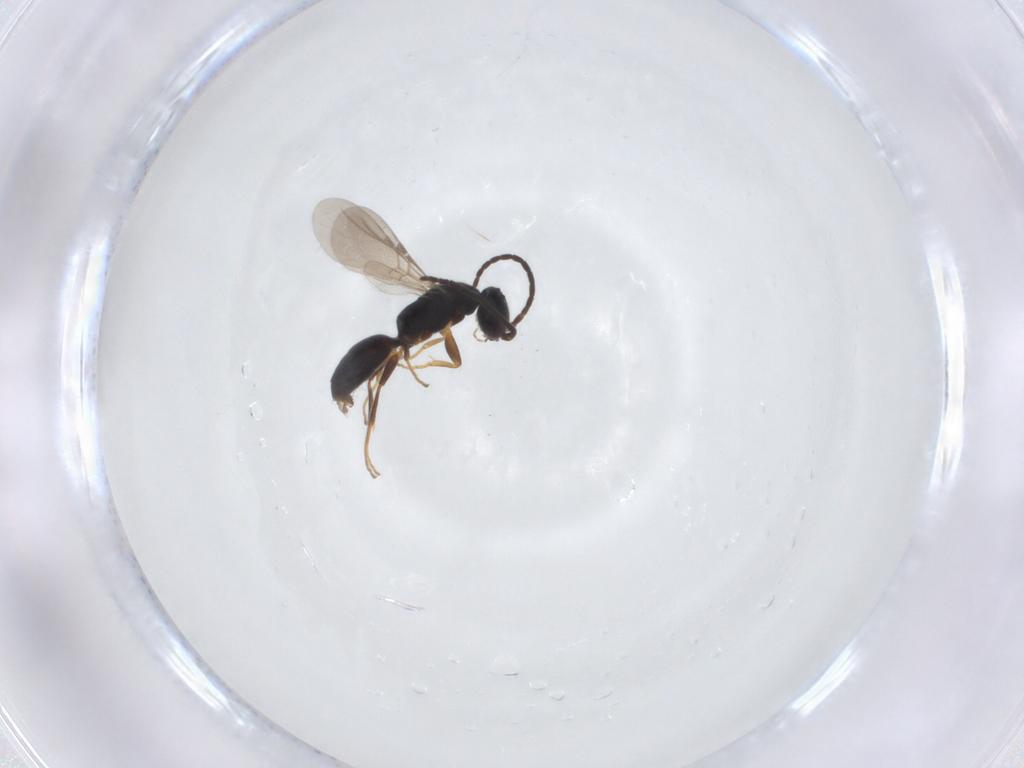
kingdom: Animalia
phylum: Arthropoda
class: Insecta
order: Hymenoptera
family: Bethylidae
